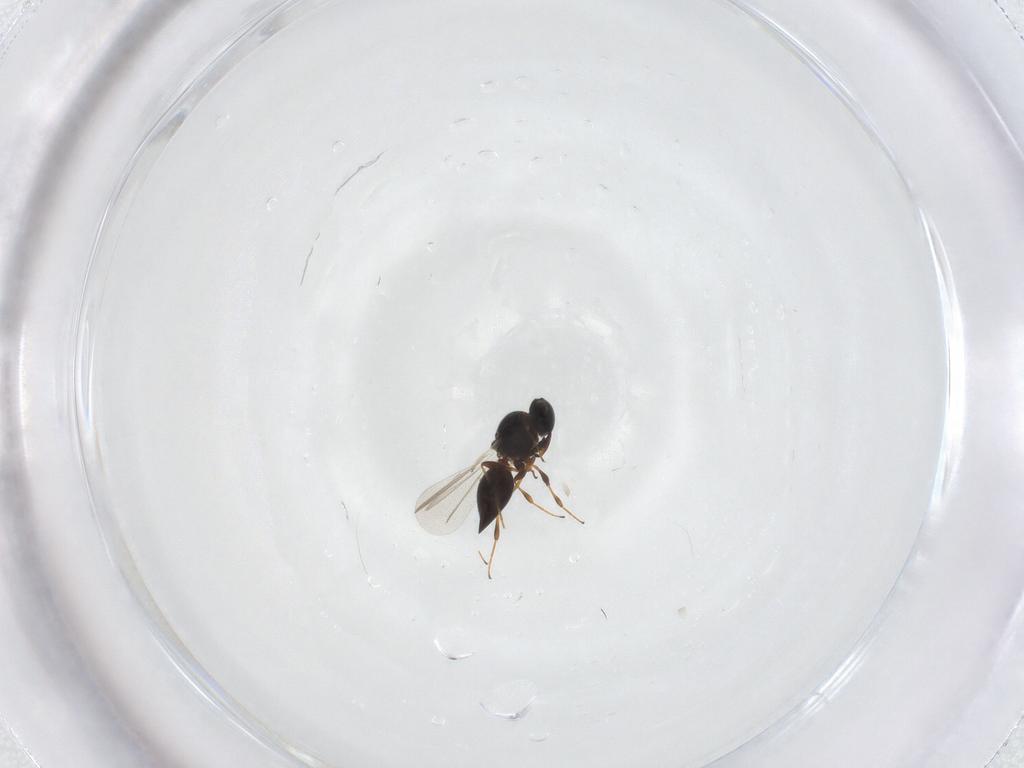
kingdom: Animalia
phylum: Arthropoda
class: Insecta
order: Hymenoptera
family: Platygastridae
